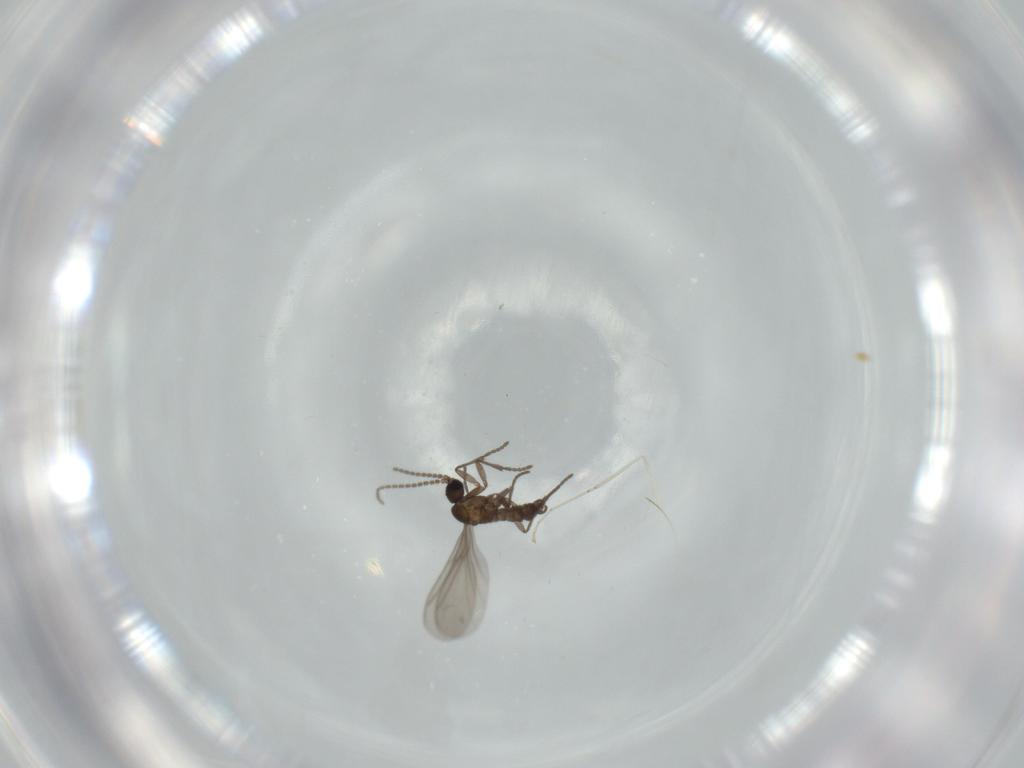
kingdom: Animalia
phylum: Arthropoda
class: Insecta
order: Diptera
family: Chironomidae
